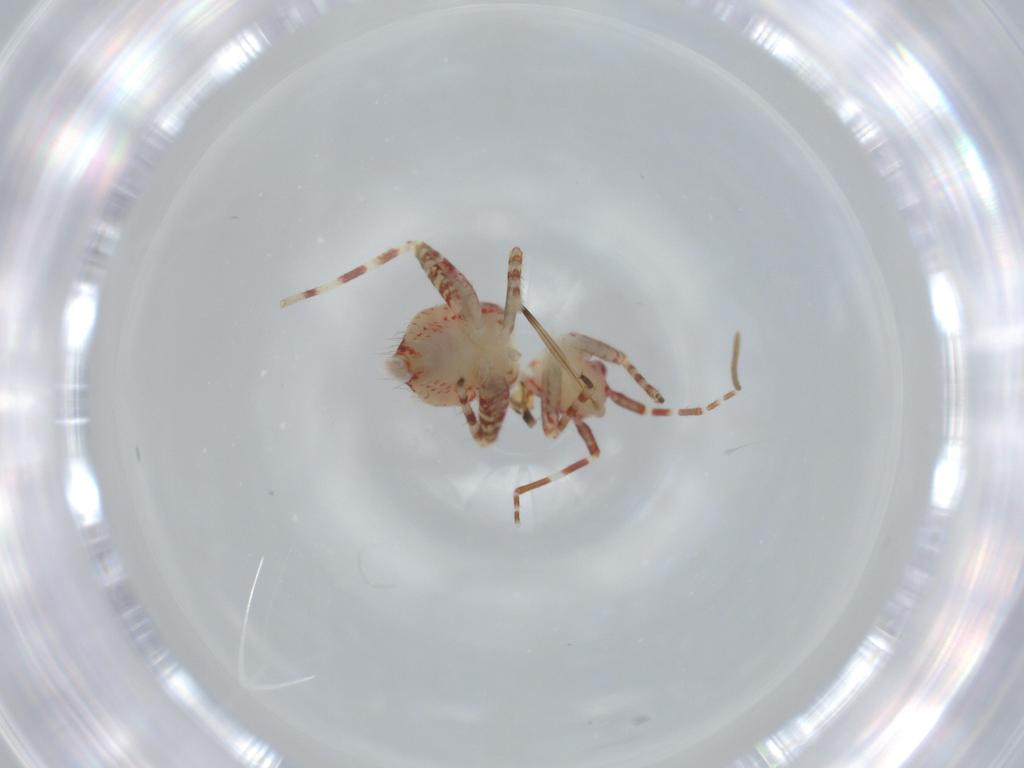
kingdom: Animalia
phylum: Arthropoda
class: Insecta
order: Hemiptera
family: Miridae
